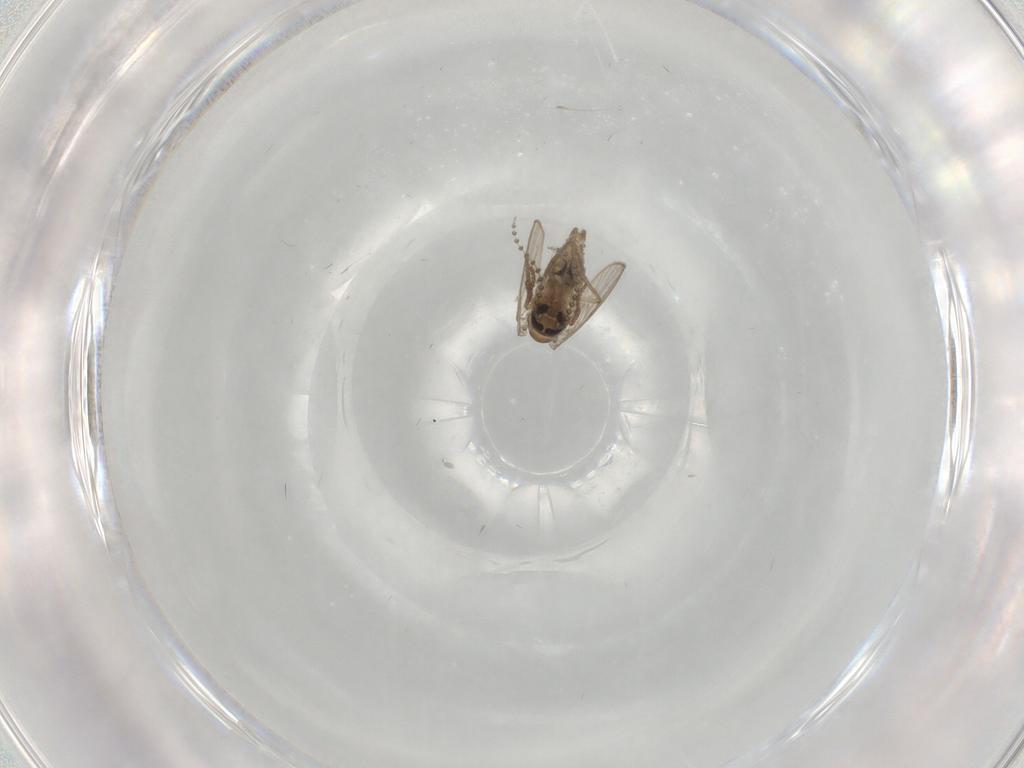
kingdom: Animalia
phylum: Arthropoda
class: Insecta
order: Diptera
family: Psychodidae
